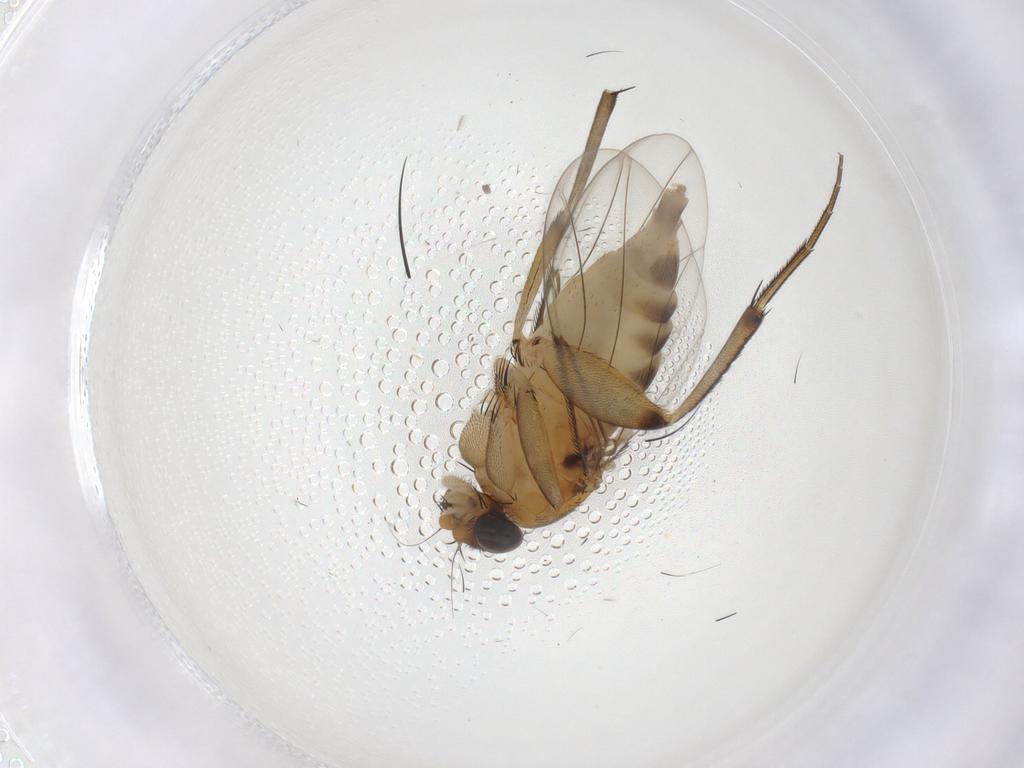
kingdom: Animalia
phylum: Arthropoda
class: Insecta
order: Diptera
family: Phoridae
